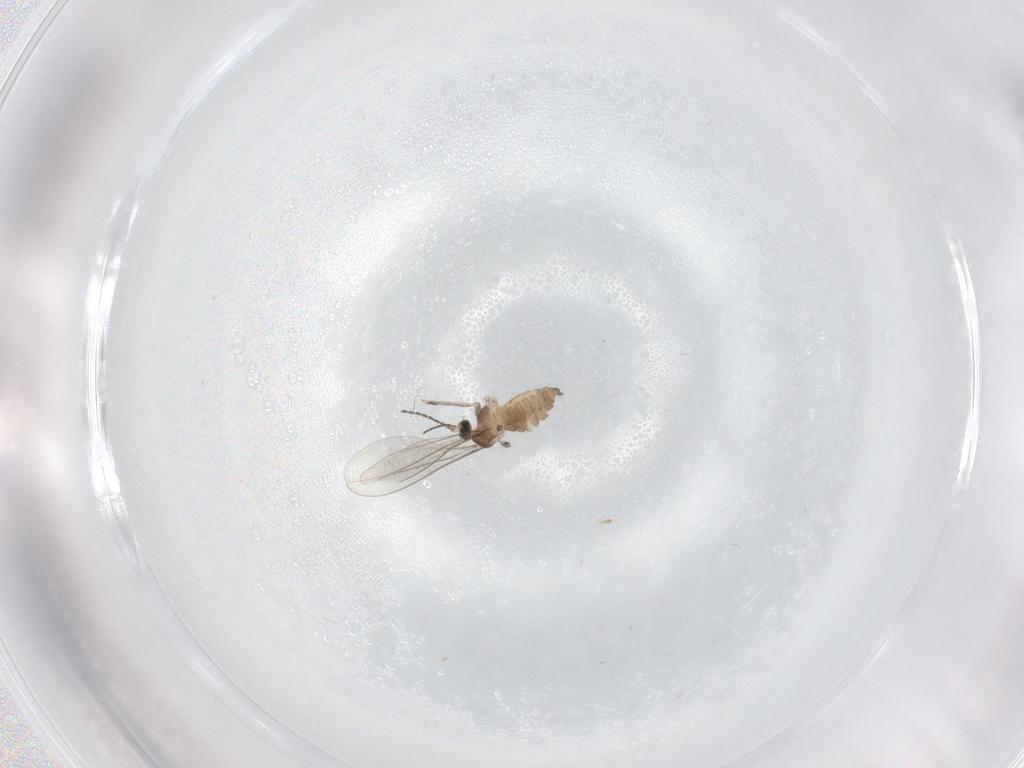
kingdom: Animalia
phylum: Arthropoda
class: Insecta
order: Diptera
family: Cecidomyiidae
